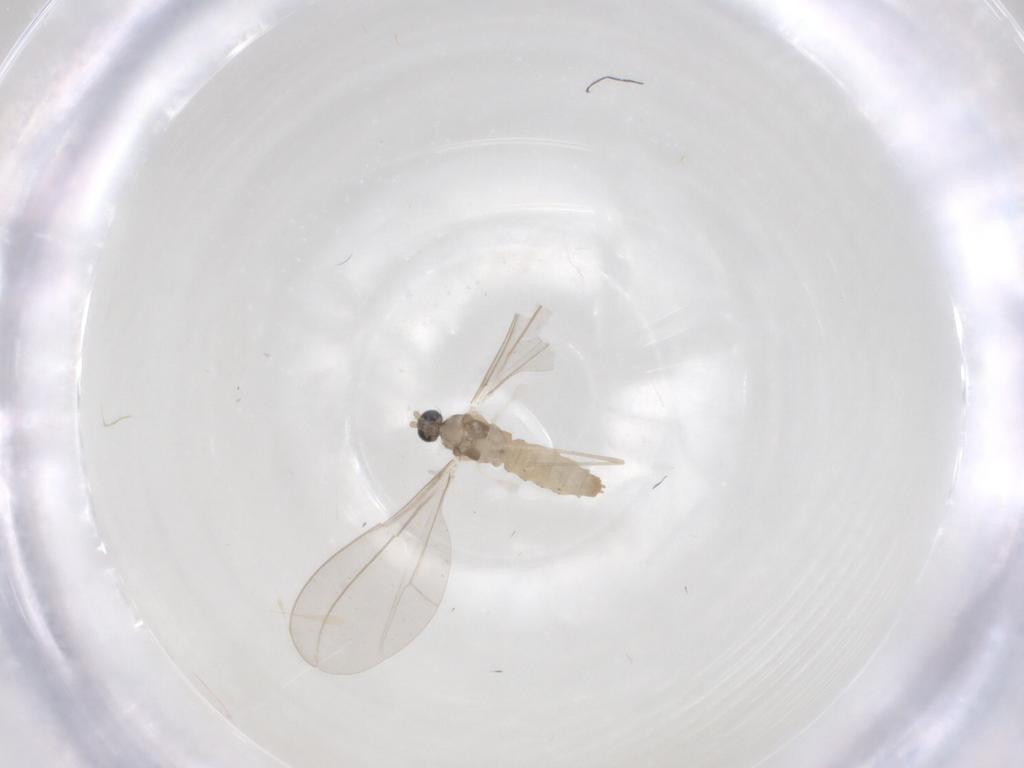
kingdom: Animalia
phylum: Arthropoda
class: Insecta
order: Diptera
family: Cecidomyiidae
